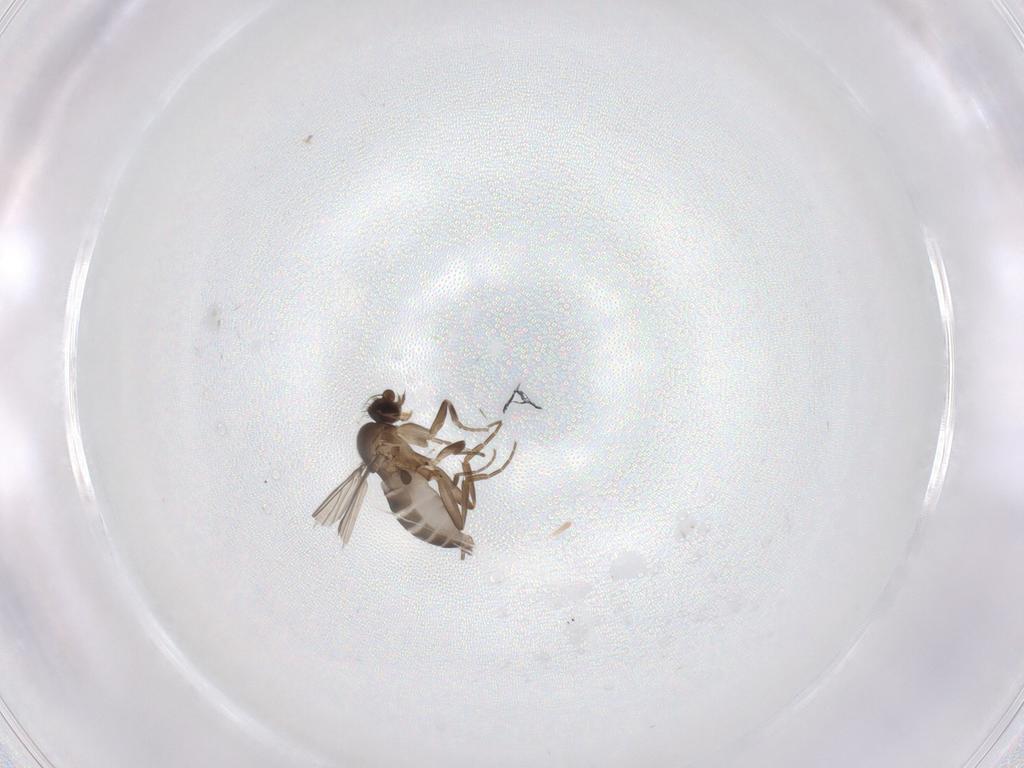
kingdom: Animalia
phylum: Arthropoda
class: Insecta
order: Diptera
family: Phoridae
